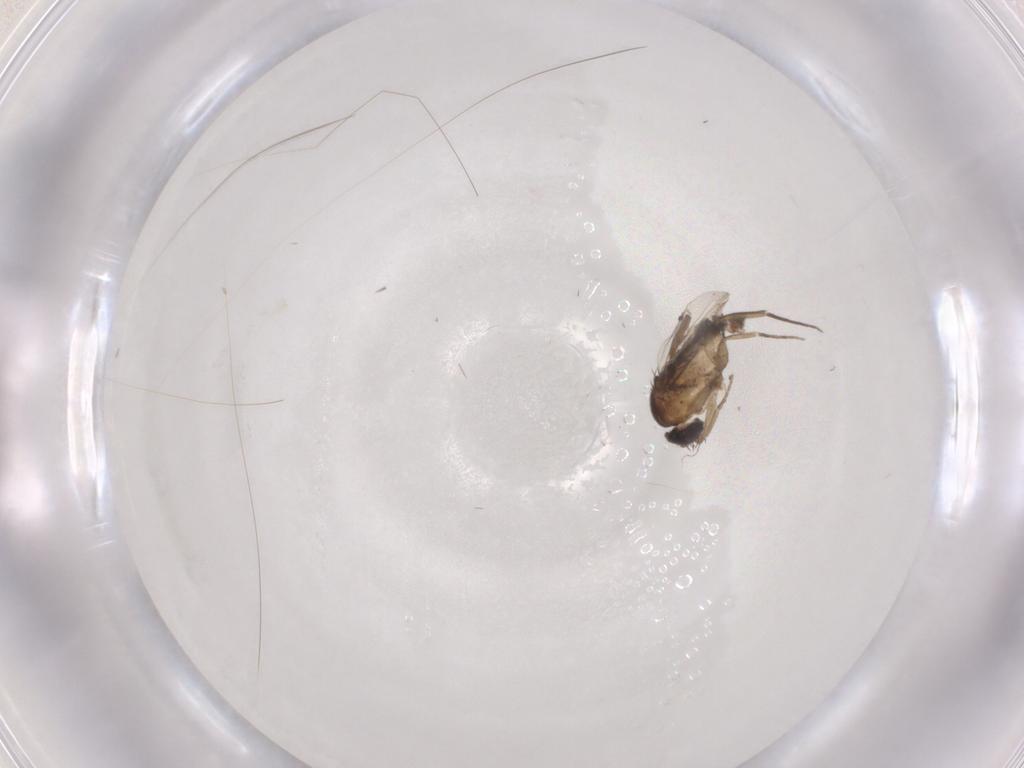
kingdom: Animalia
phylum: Arthropoda
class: Insecta
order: Diptera
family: Phoridae
